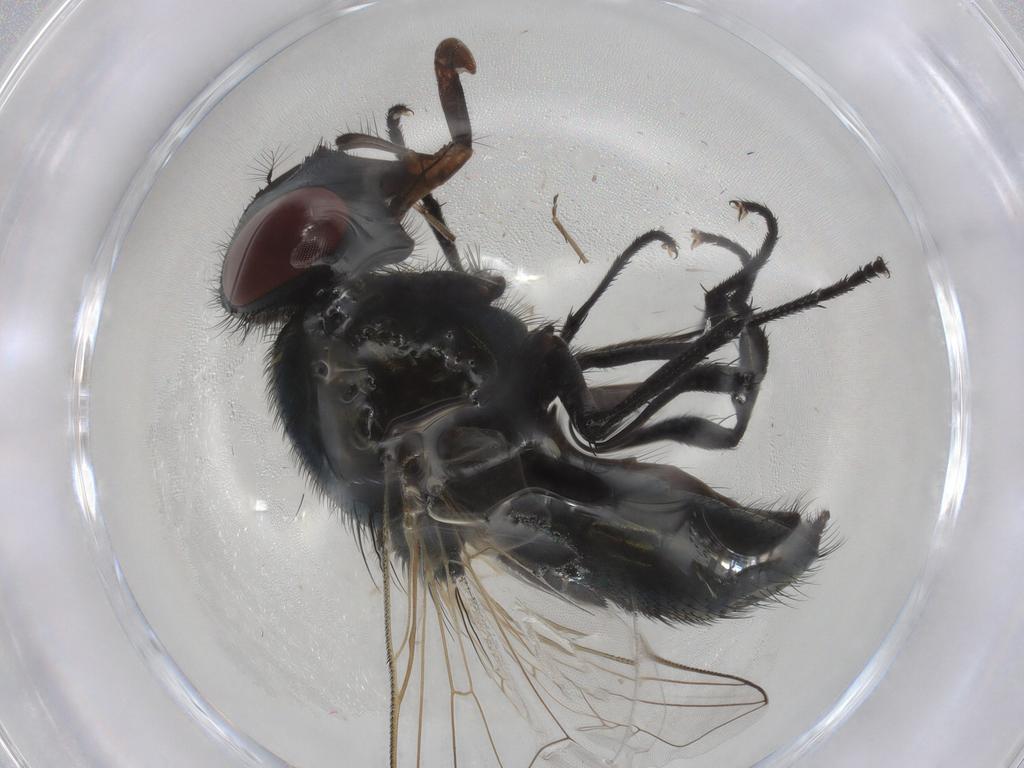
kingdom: Animalia
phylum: Arthropoda
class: Insecta
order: Diptera
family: Muscidae
